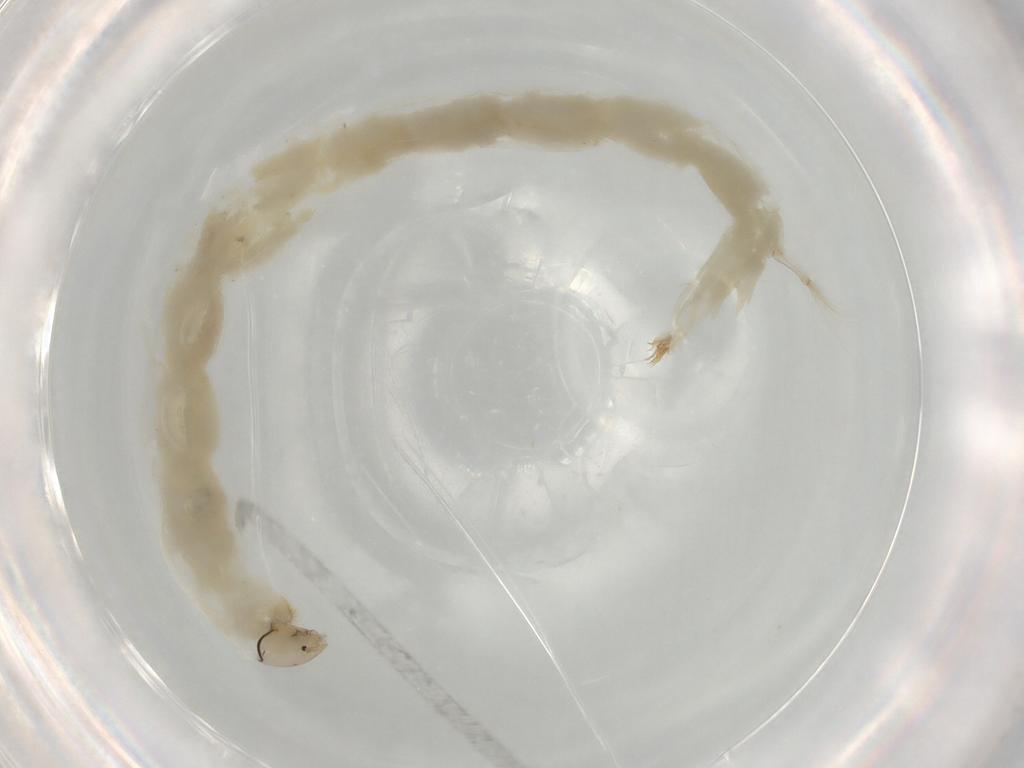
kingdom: Animalia
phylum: Arthropoda
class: Insecta
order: Diptera
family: Chironomidae
